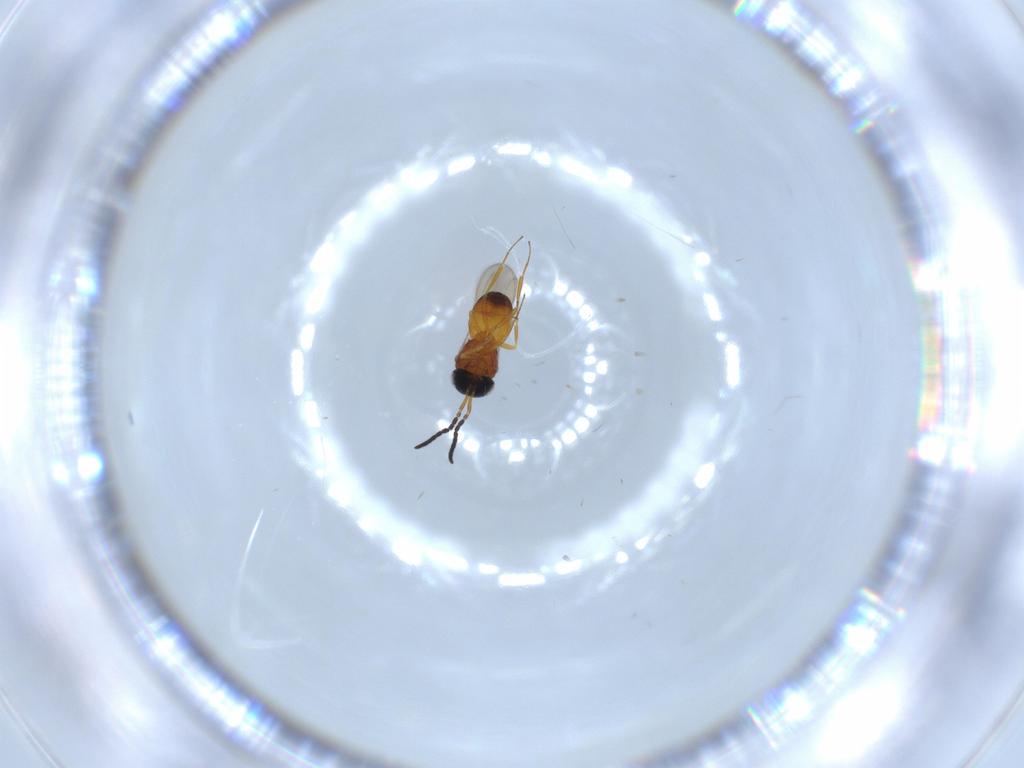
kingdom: Animalia
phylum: Arthropoda
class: Insecta
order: Hymenoptera
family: Scelionidae
